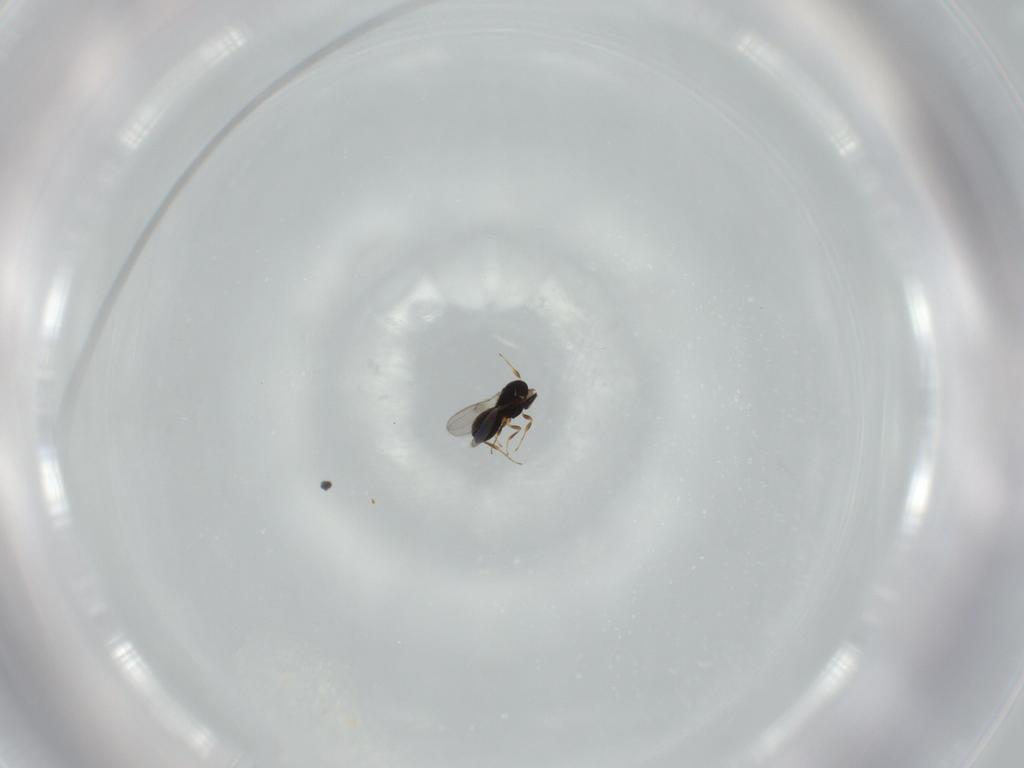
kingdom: Animalia
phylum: Arthropoda
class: Insecta
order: Hymenoptera
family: Scelionidae
